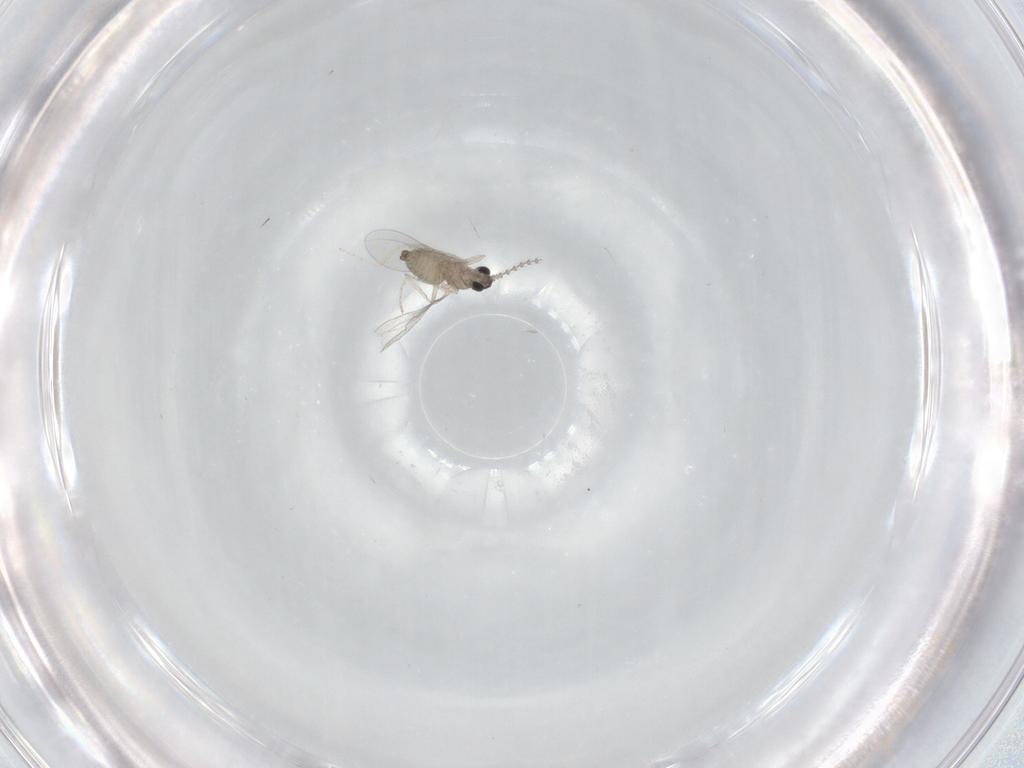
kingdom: Animalia
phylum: Arthropoda
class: Insecta
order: Diptera
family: Cecidomyiidae
